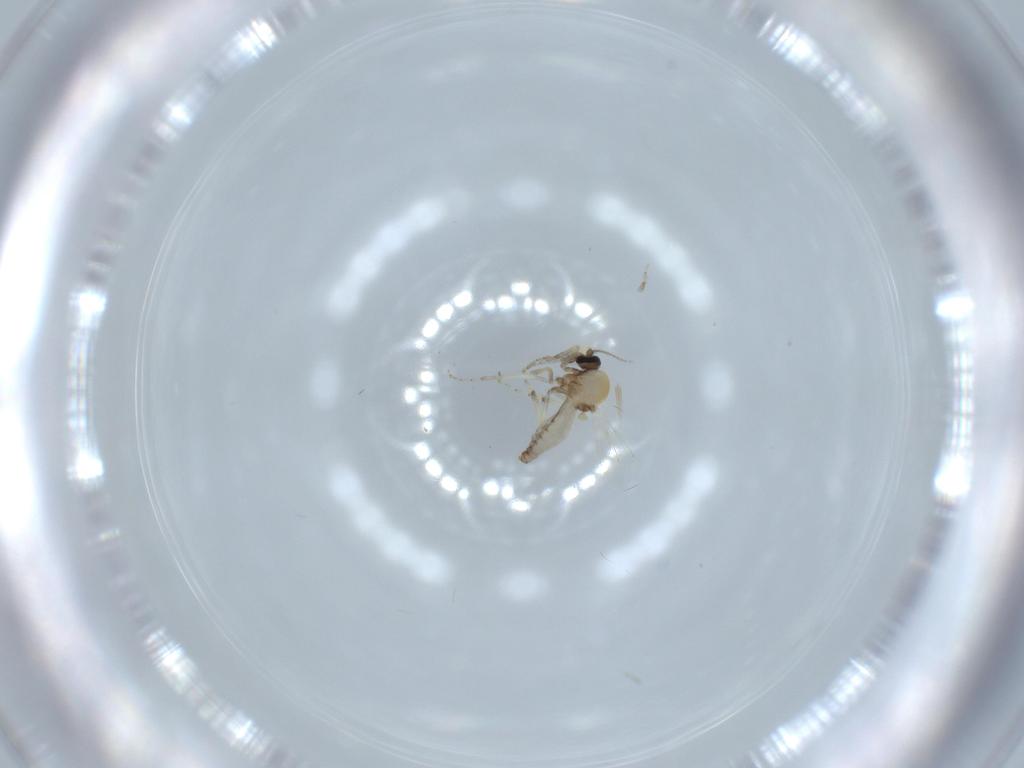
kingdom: Animalia
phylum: Arthropoda
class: Insecta
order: Diptera
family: Ceratopogonidae
